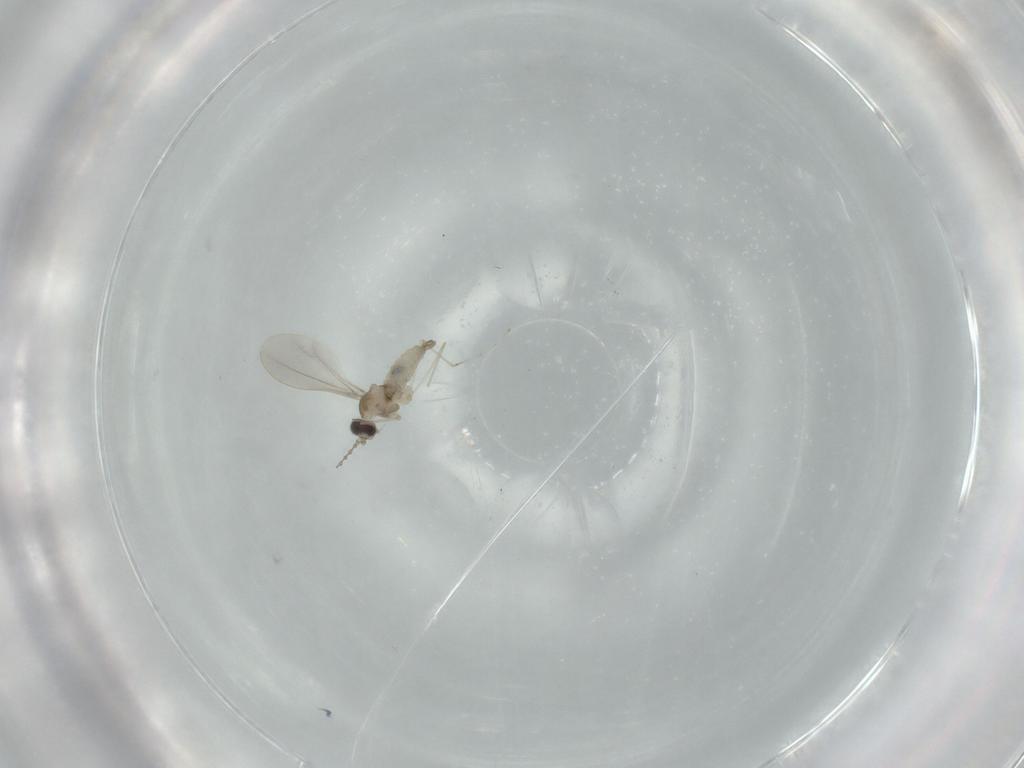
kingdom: Animalia
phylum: Arthropoda
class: Insecta
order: Diptera
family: Cecidomyiidae
